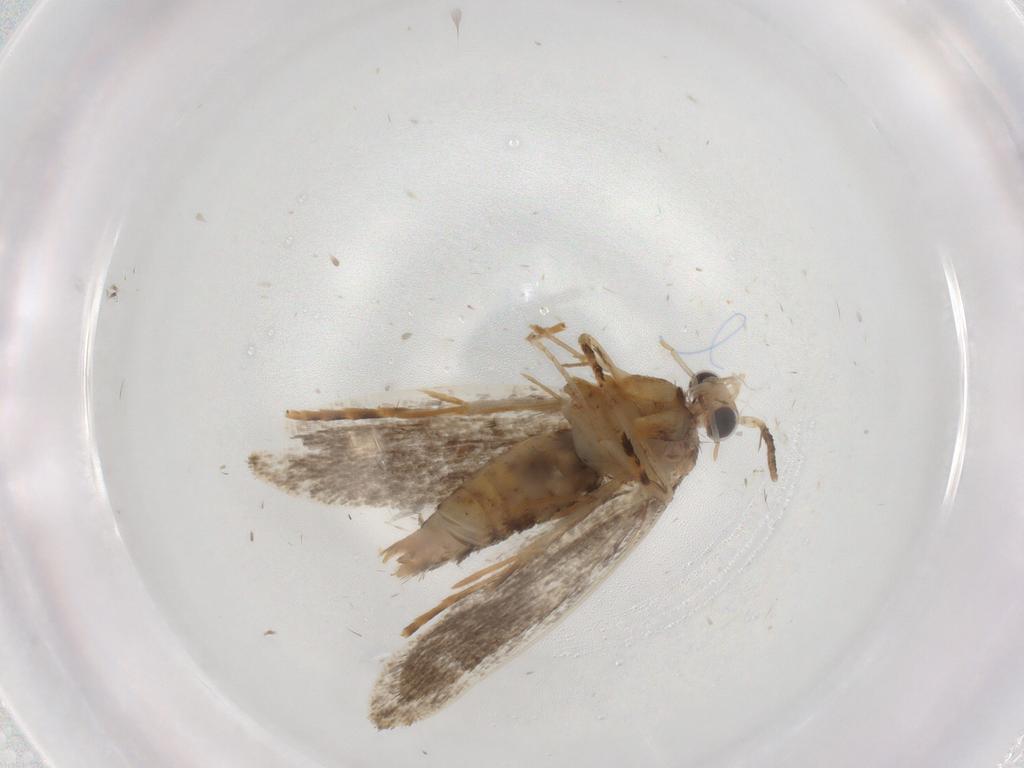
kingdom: Animalia
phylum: Arthropoda
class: Insecta
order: Lepidoptera
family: Tineidae
